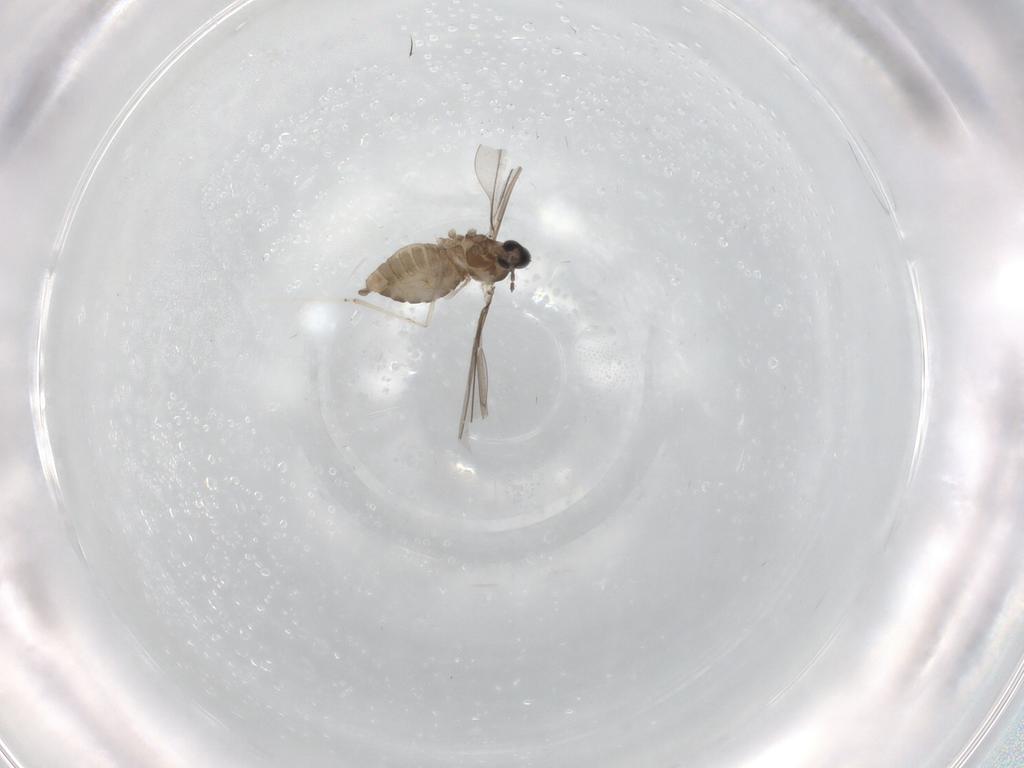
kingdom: Animalia
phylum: Arthropoda
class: Insecta
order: Diptera
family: Cecidomyiidae
